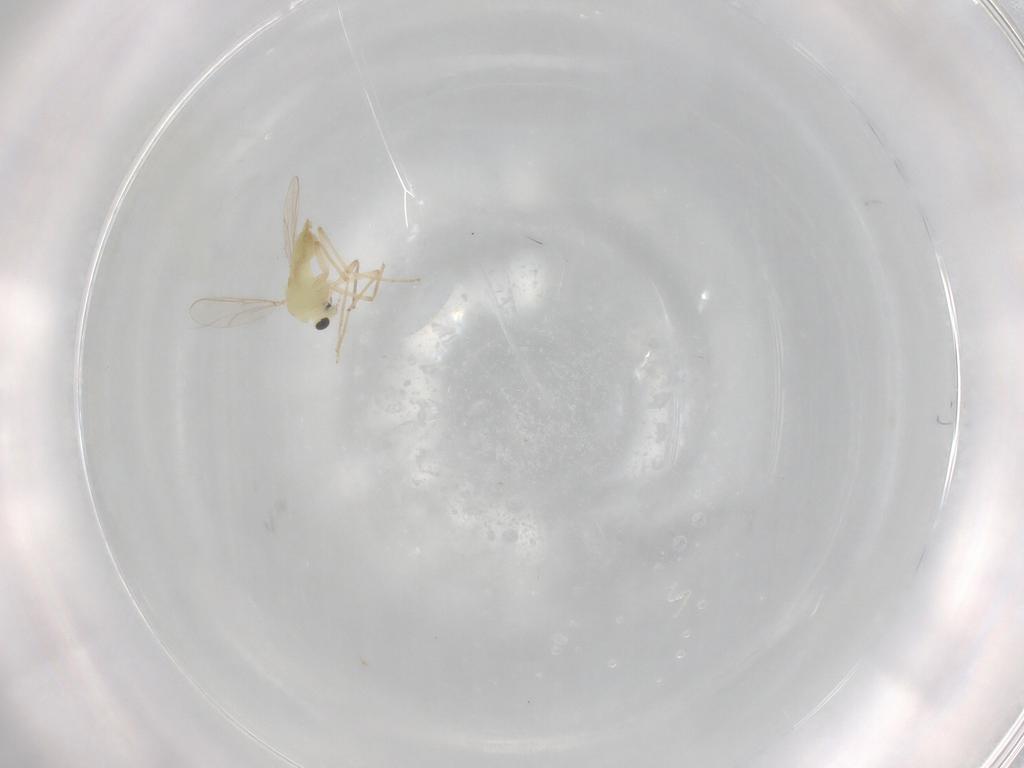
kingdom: Animalia
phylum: Arthropoda
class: Insecta
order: Diptera
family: Chironomidae
